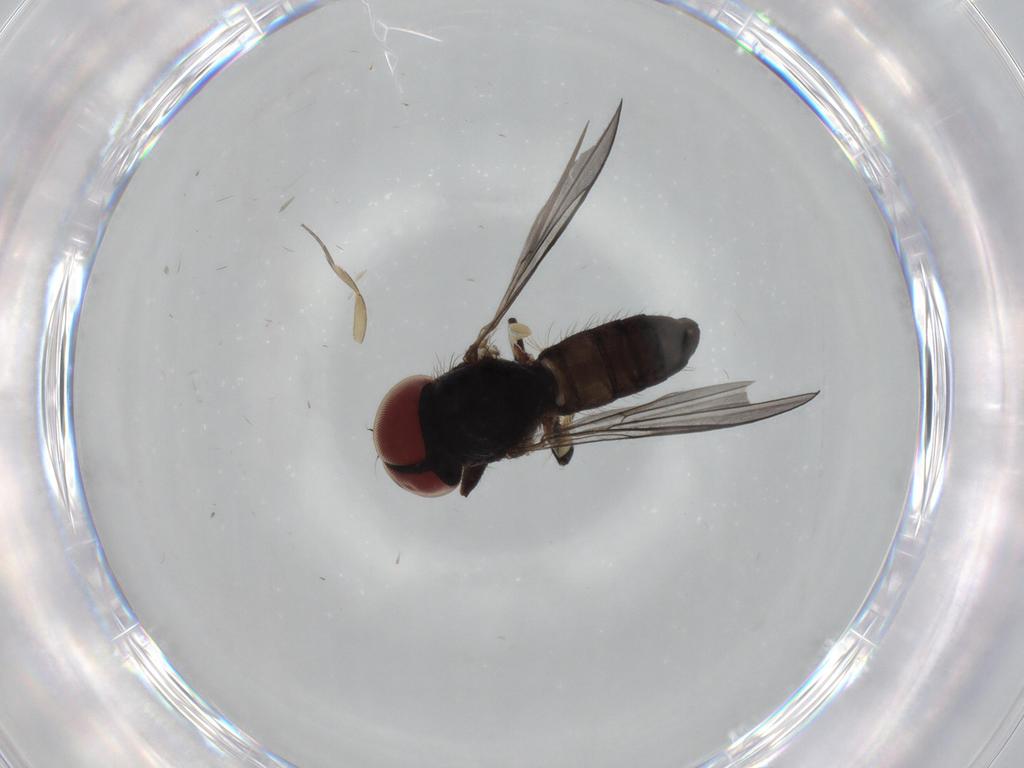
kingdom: Animalia
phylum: Arthropoda
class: Insecta
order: Diptera
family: Pipunculidae
